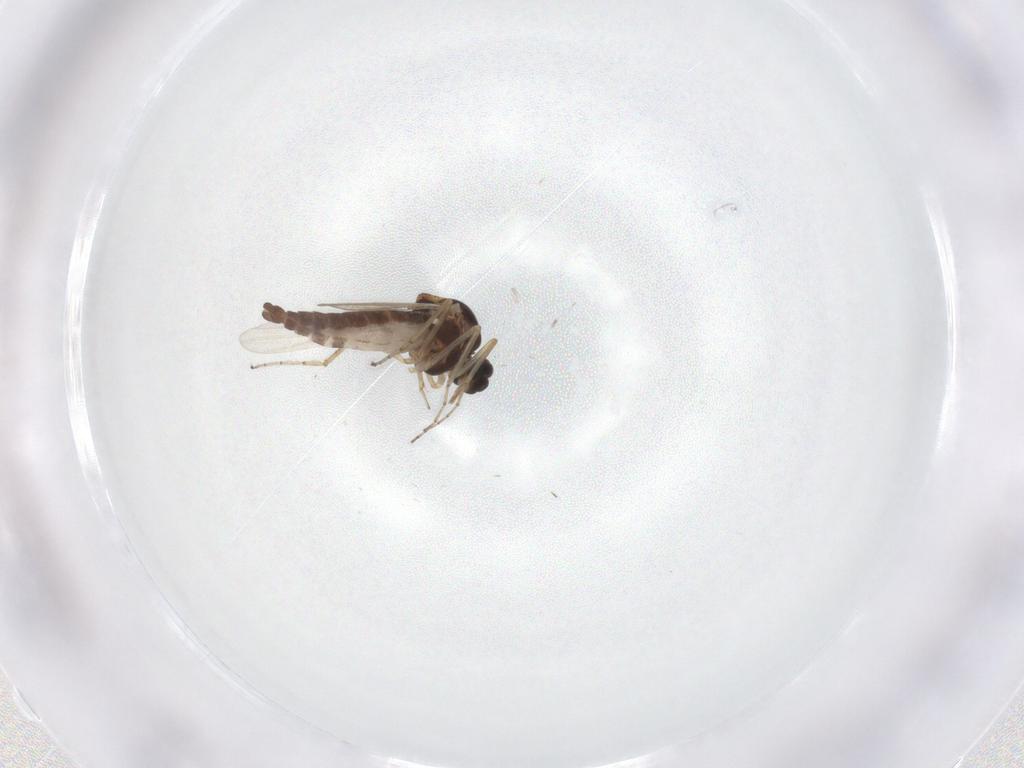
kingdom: Animalia
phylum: Arthropoda
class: Insecta
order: Diptera
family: Ceratopogonidae
